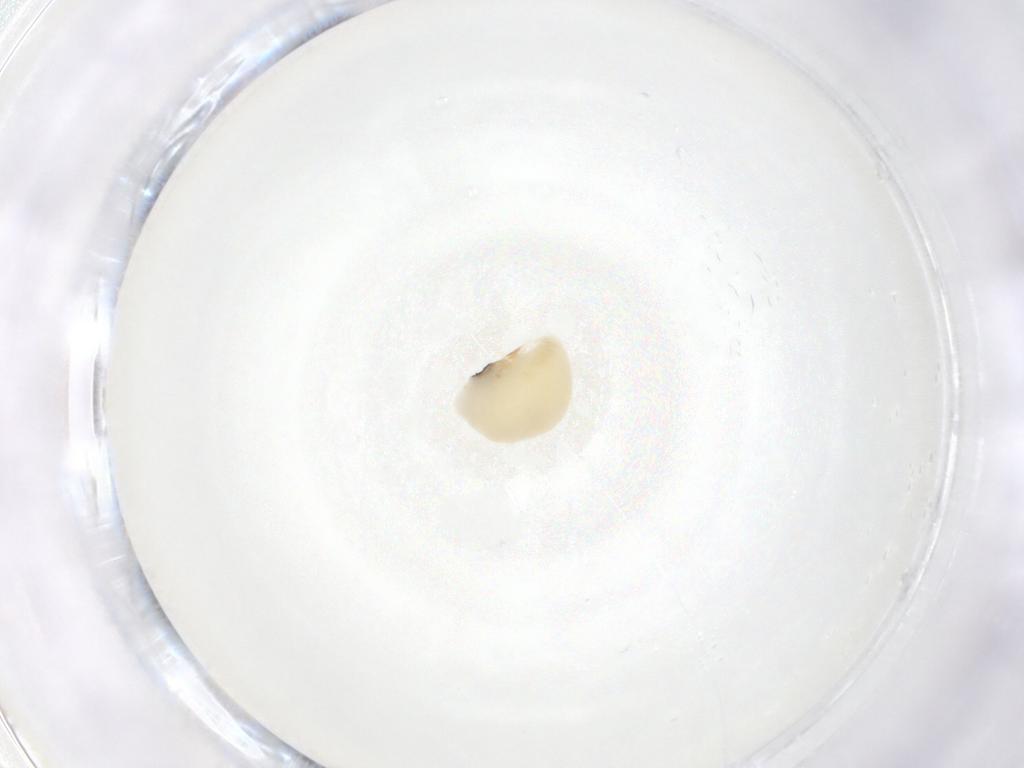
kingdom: Animalia
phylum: Arthropoda
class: Insecta
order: Hymenoptera
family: Eulophidae
